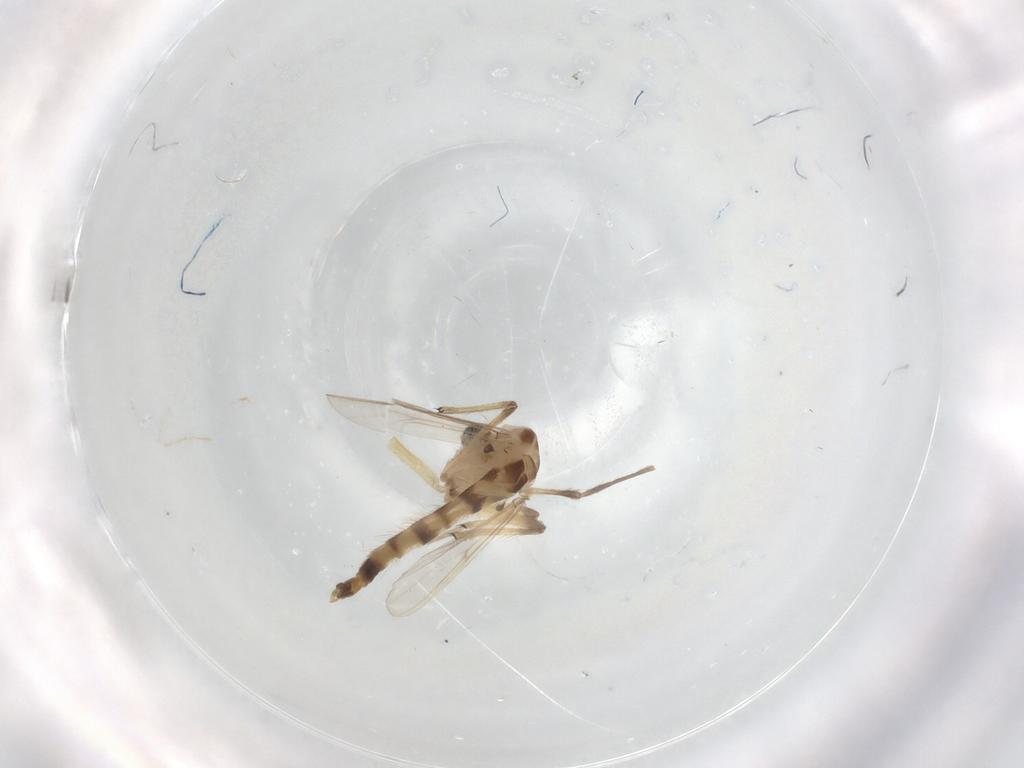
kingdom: Animalia
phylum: Arthropoda
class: Insecta
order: Diptera
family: Chironomidae
